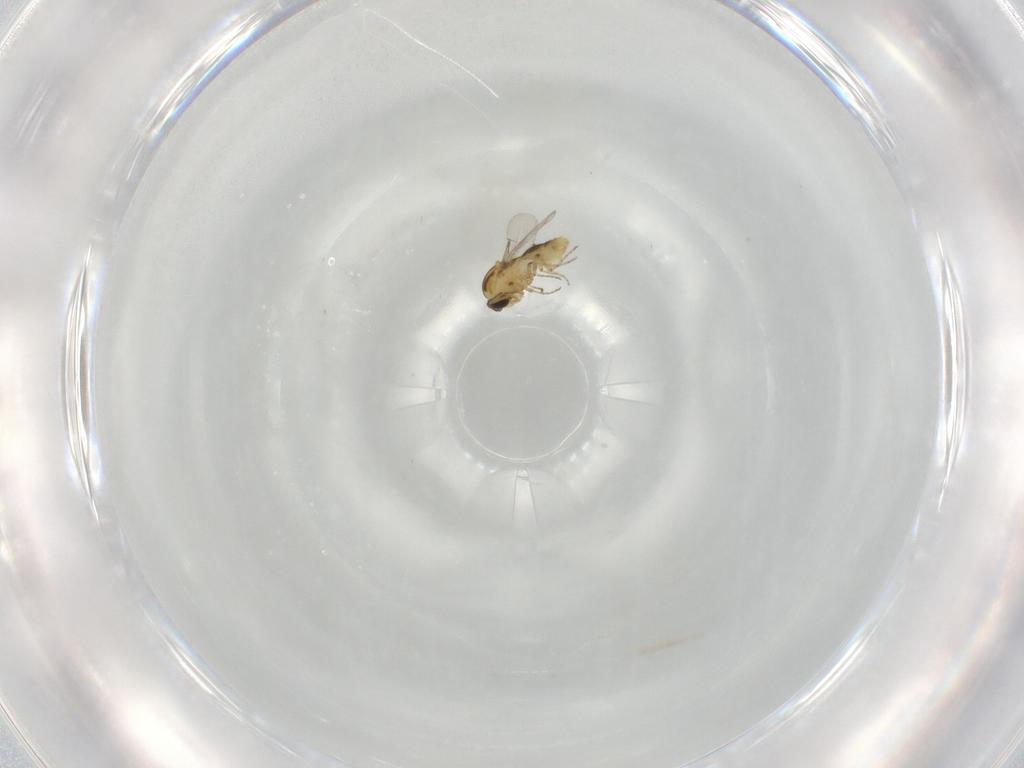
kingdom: Animalia
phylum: Arthropoda
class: Insecta
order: Diptera
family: Ceratopogonidae
